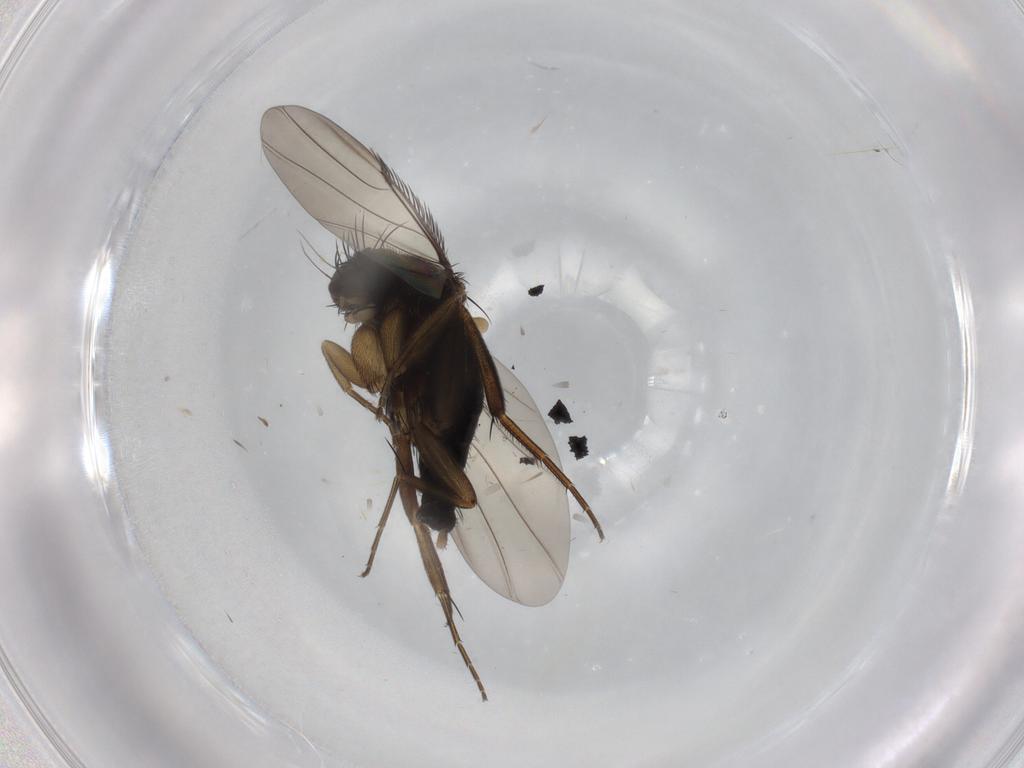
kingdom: Animalia
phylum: Arthropoda
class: Insecta
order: Diptera
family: Phoridae
